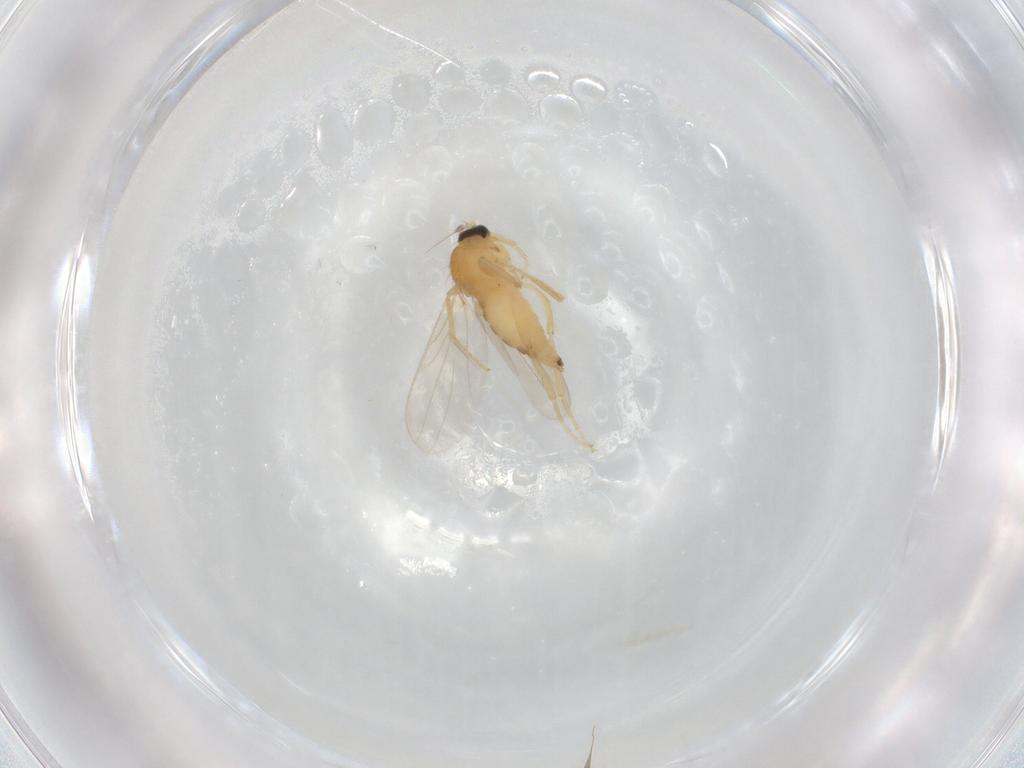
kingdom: Animalia
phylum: Arthropoda
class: Insecta
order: Diptera
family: Hybotidae
